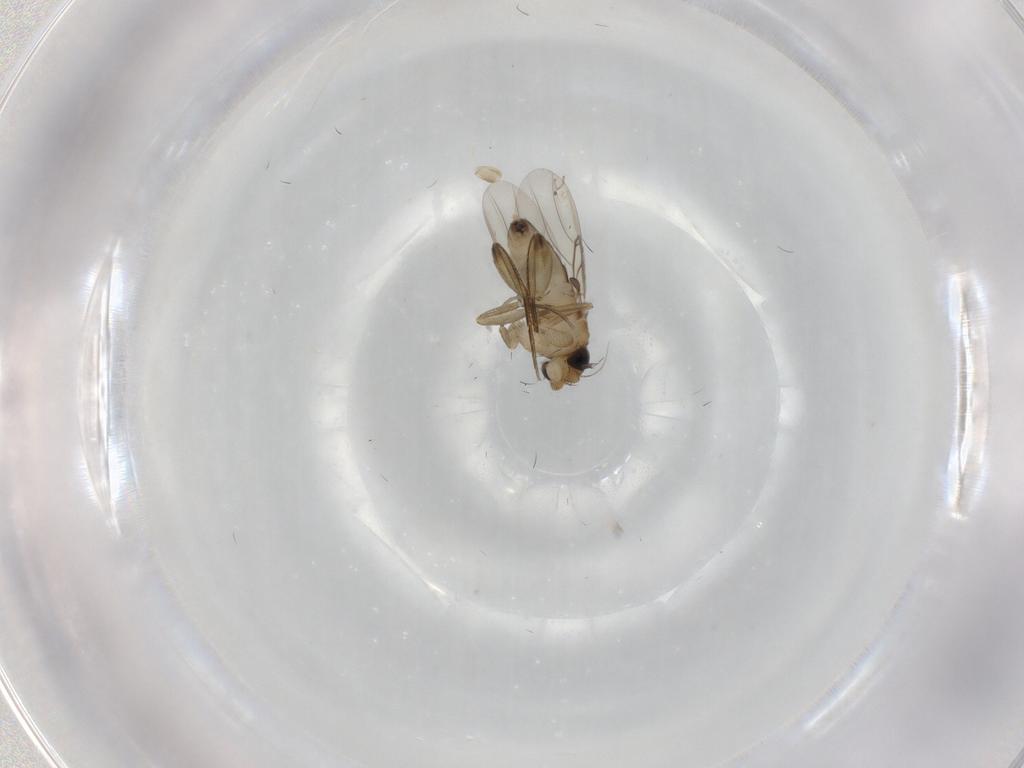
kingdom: Animalia
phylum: Arthropoda
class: Insecta
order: Diptera
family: Phoridae
